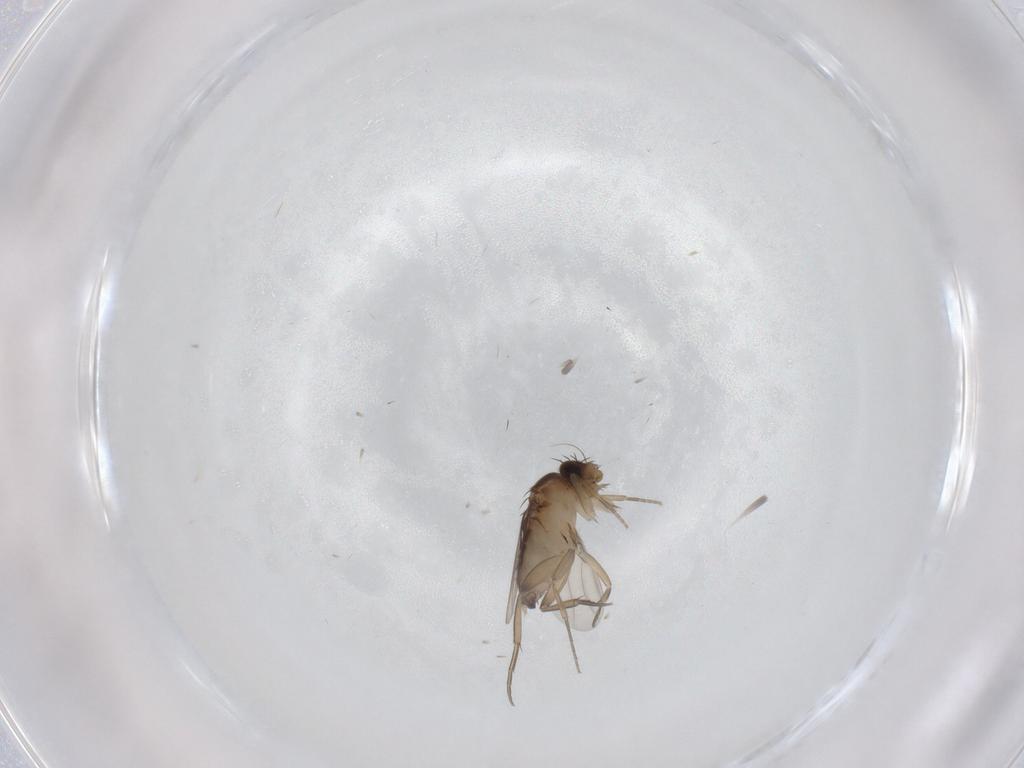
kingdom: Animalia
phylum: Arthropoda
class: Insecta
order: Diptera
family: Phoridae
